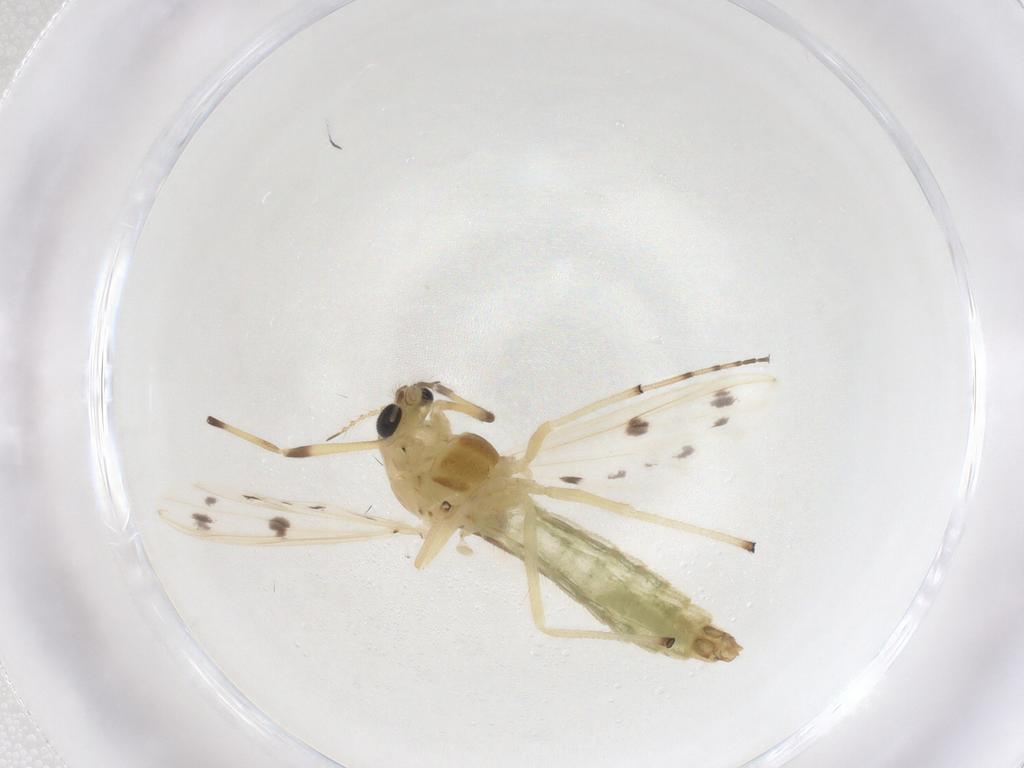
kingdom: Animalia
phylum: Arthropoda
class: Insecta
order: Diptera
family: Chironomidae
